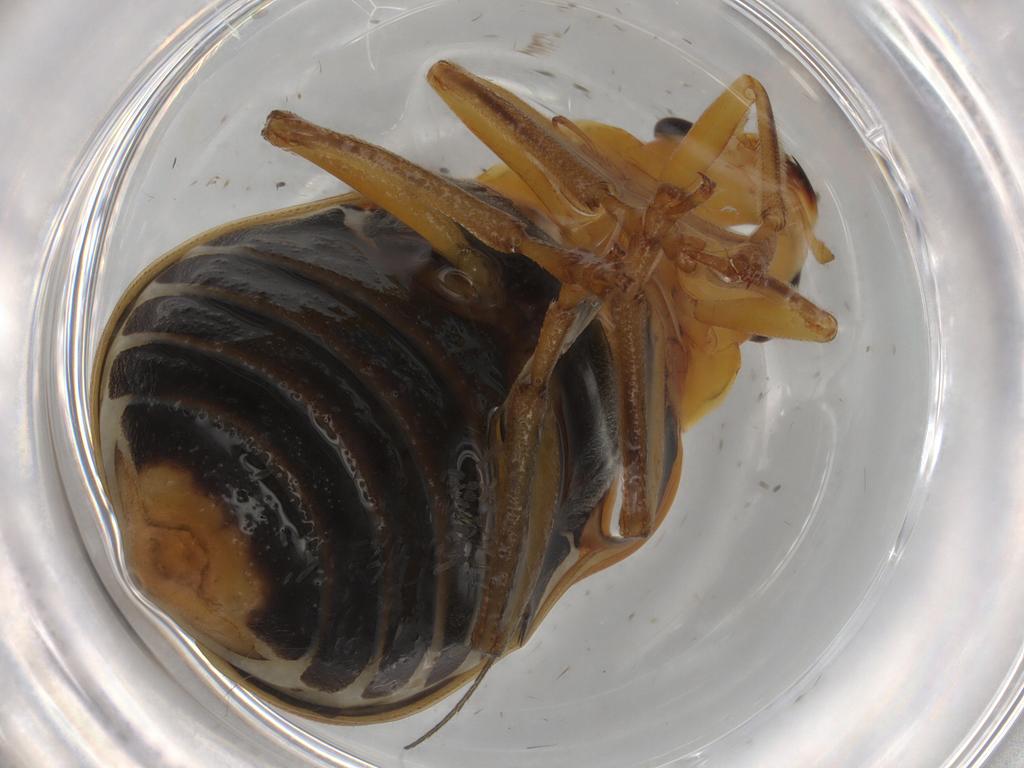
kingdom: Animalia
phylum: Arthropoda
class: Insecta
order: Coleoptera
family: Chrysomelidae
